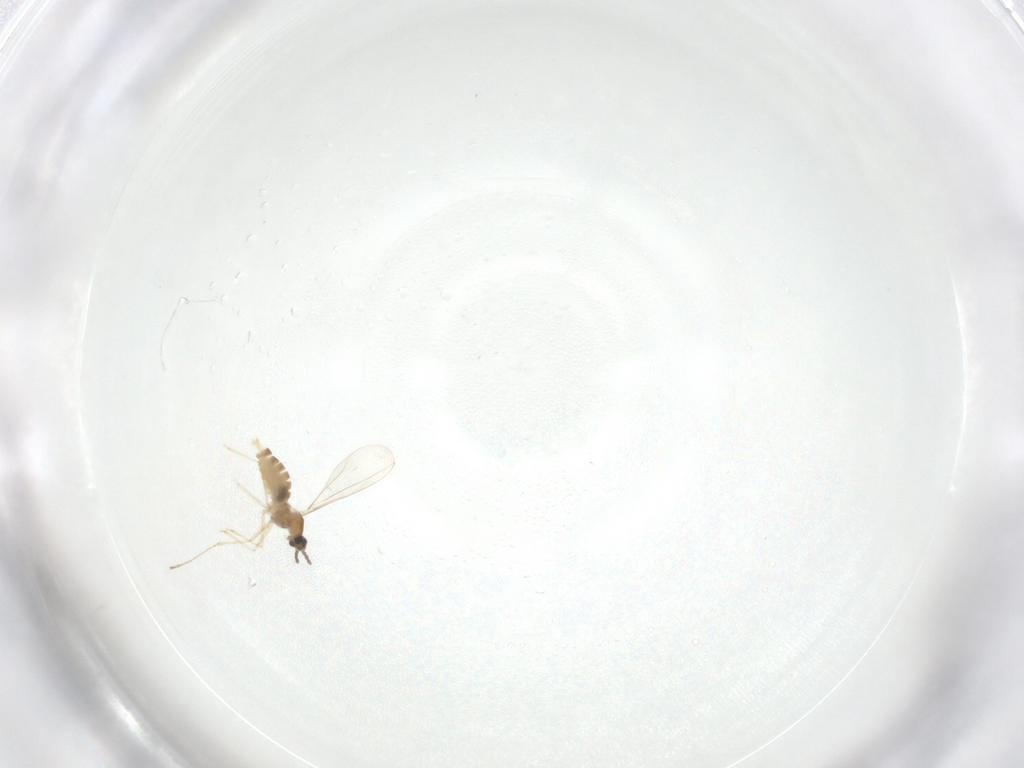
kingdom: Animalia
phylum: Arthropoda
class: Insecta
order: Diptera
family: Cecidomyiidae
